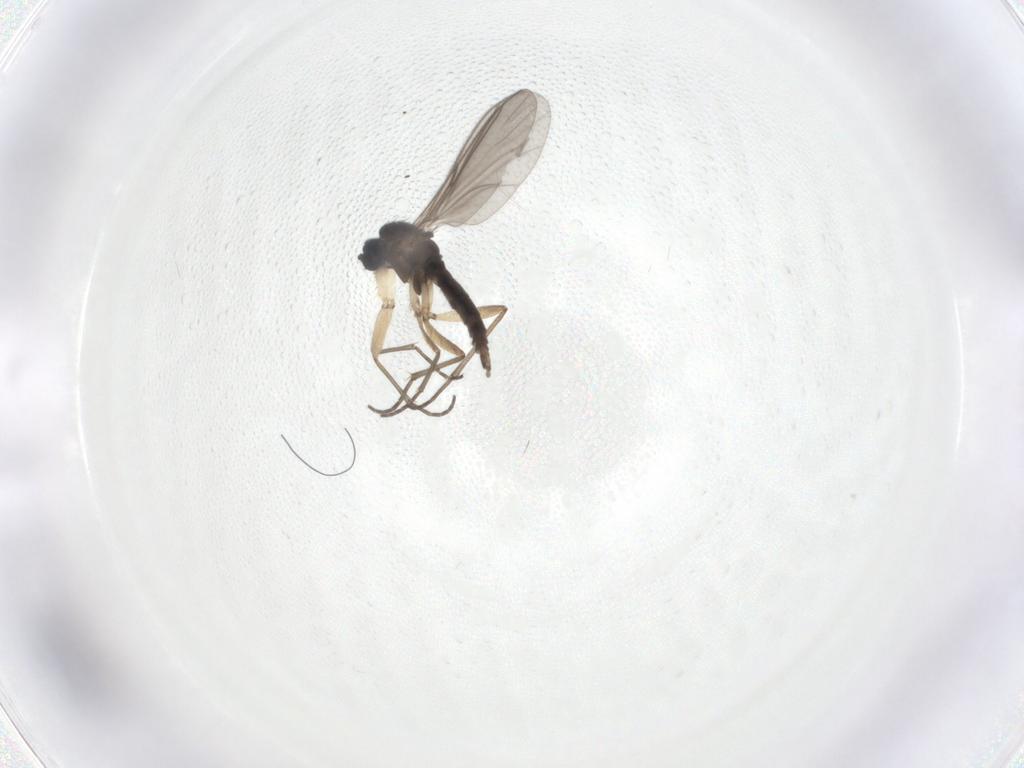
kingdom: Animalia
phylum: Arthropoda
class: Insecta
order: Diptera
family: Sciaridae
